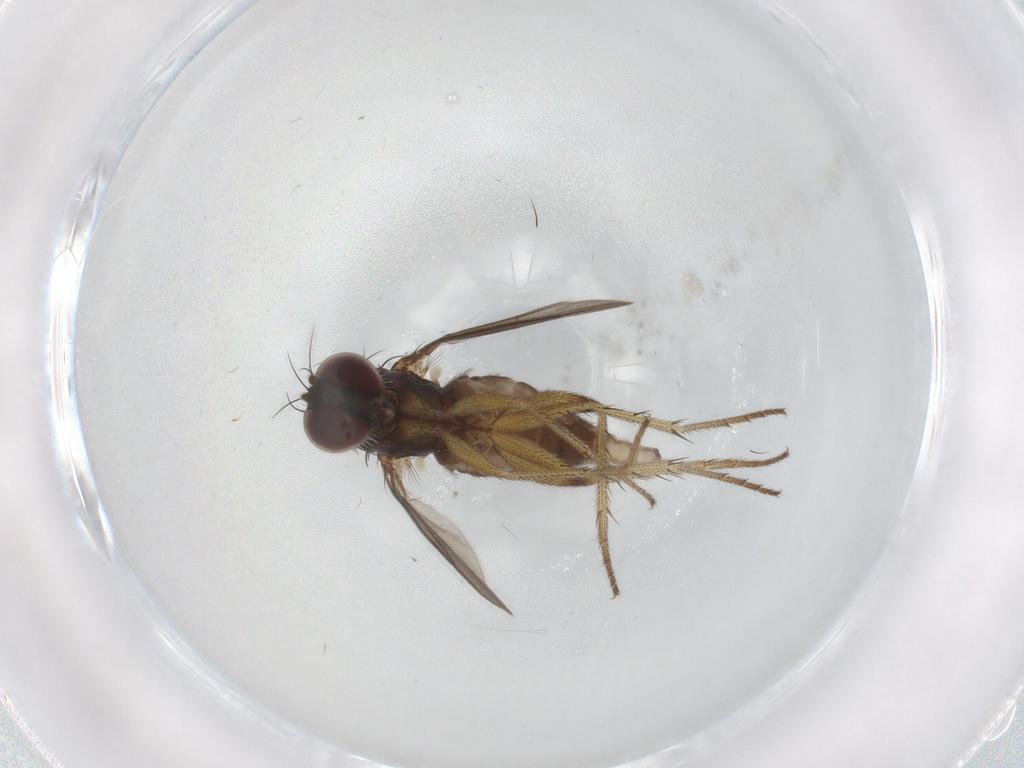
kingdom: Animalia
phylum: Arthropoda
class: Insecta
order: Diptera
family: Dolichopodidae
